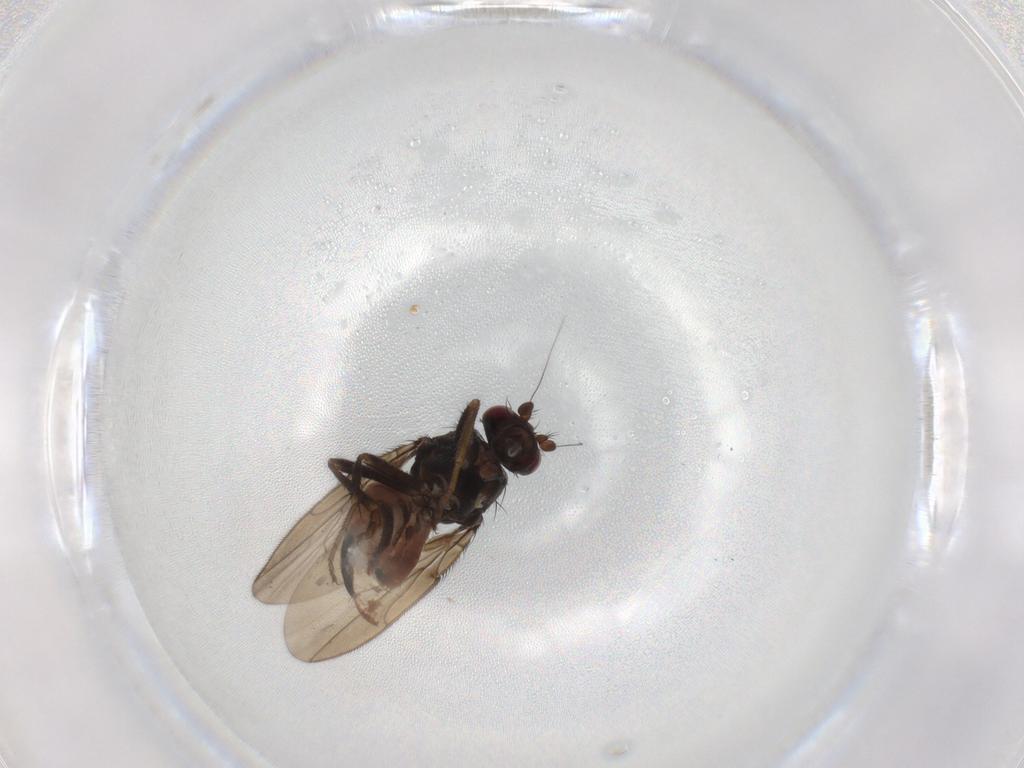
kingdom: Animalia
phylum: Arthropoda
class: Insecta
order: Diptera
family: Sphaeroceridae
